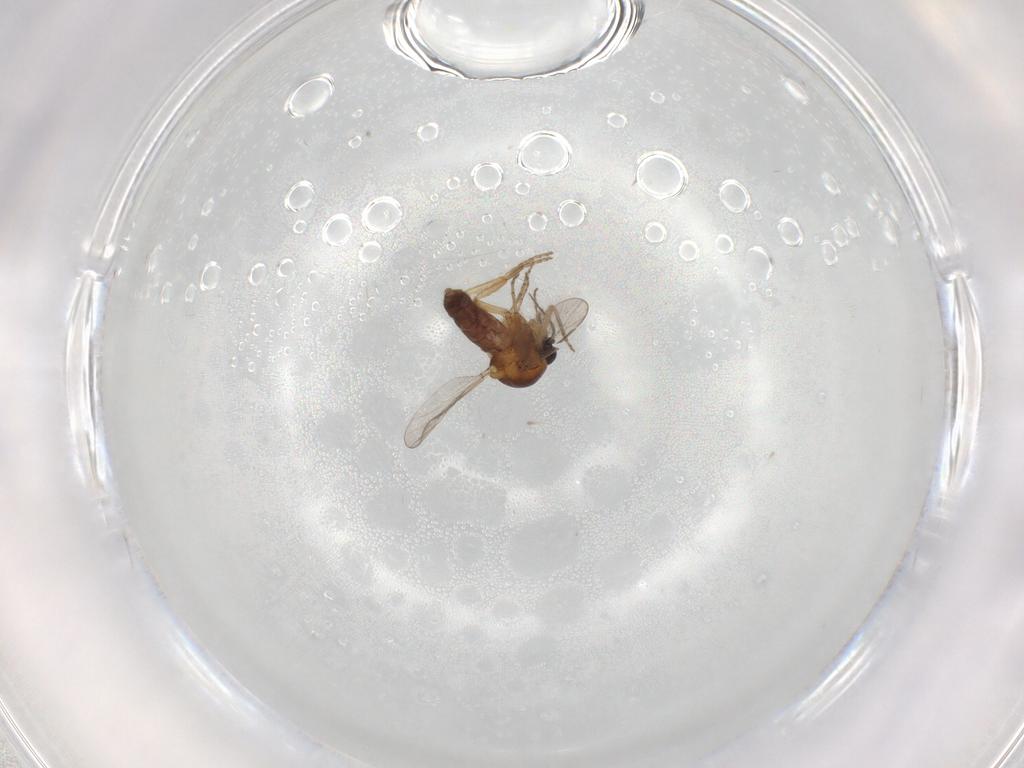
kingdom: Animalia
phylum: Arthropoda
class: Insecta
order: Diptera
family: Ceratopogonidae
